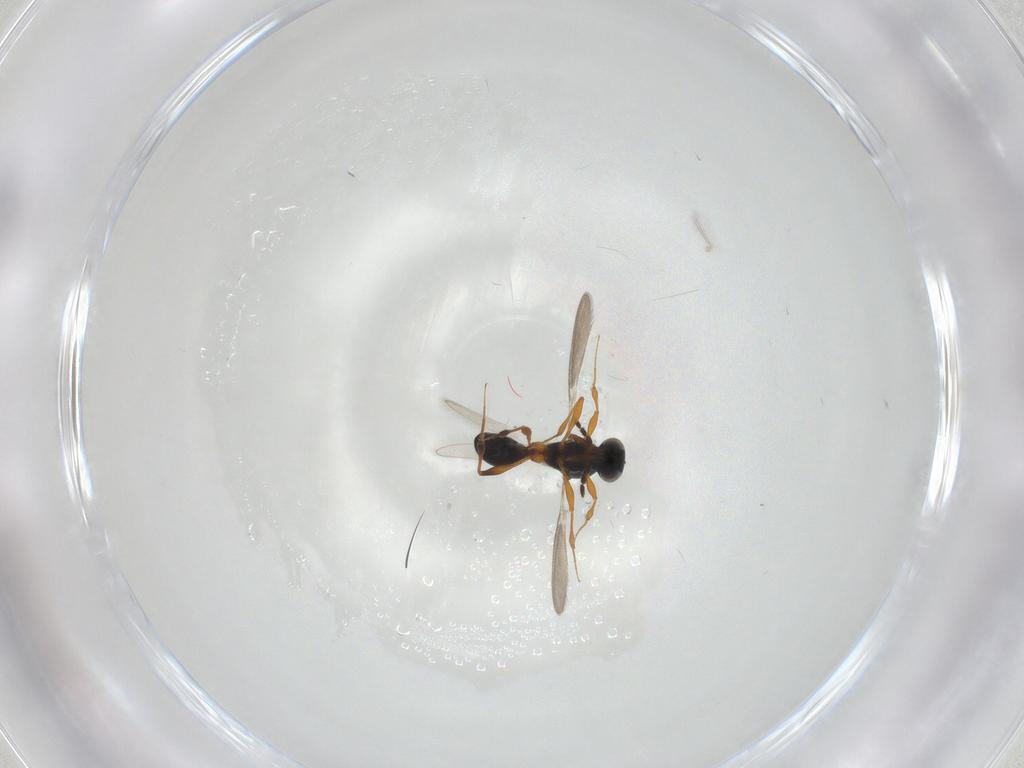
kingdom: Animalia
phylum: Arthropoda
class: Insecta
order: Hymenoptera
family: Platygastridae
